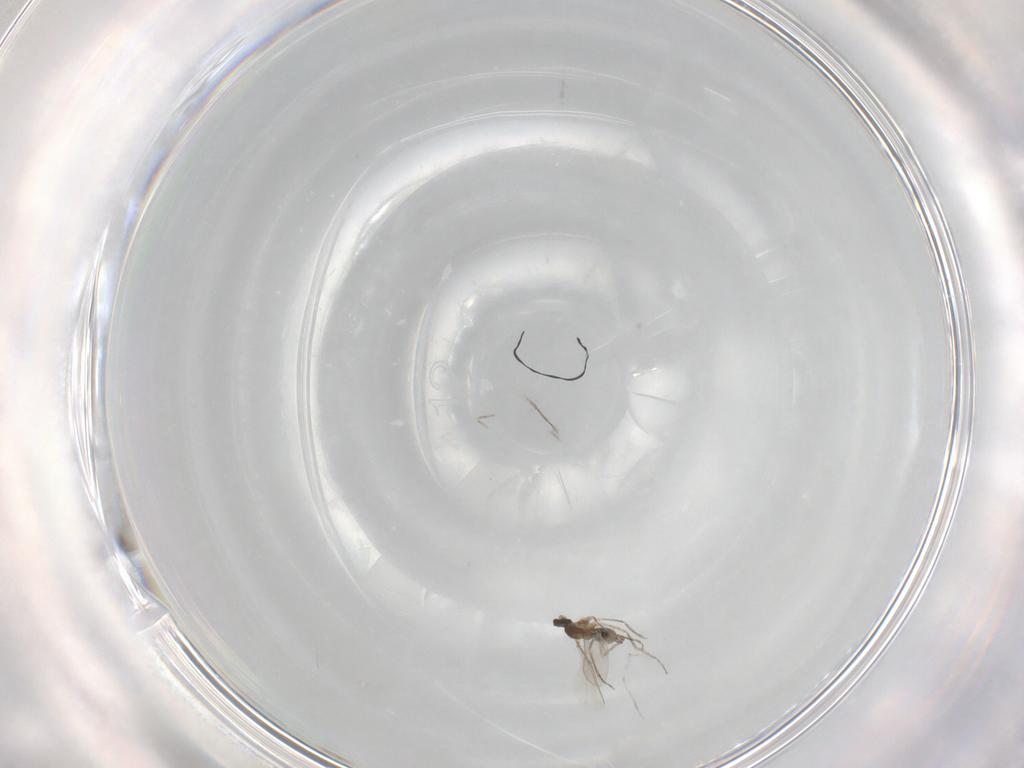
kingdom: Animalia
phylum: Arthropoda
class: Insecta
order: Diptera
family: Cecidomyiidae
